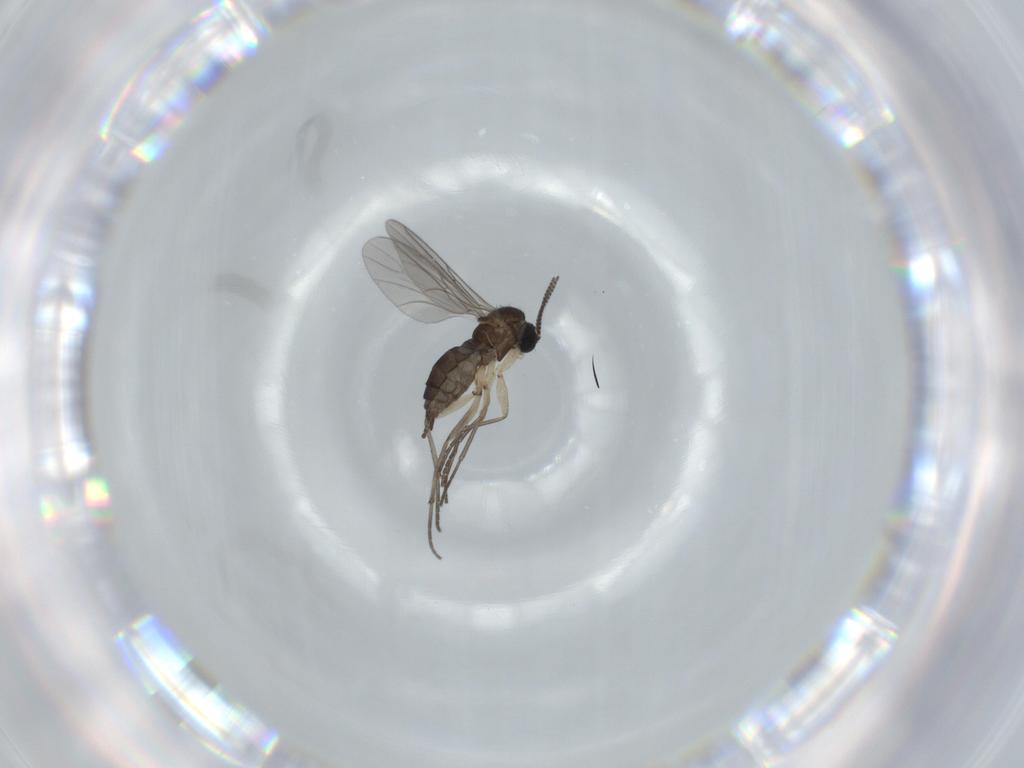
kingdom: Animalia
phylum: Arthropoda
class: Insecta
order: Diptera
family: Sciaridae
